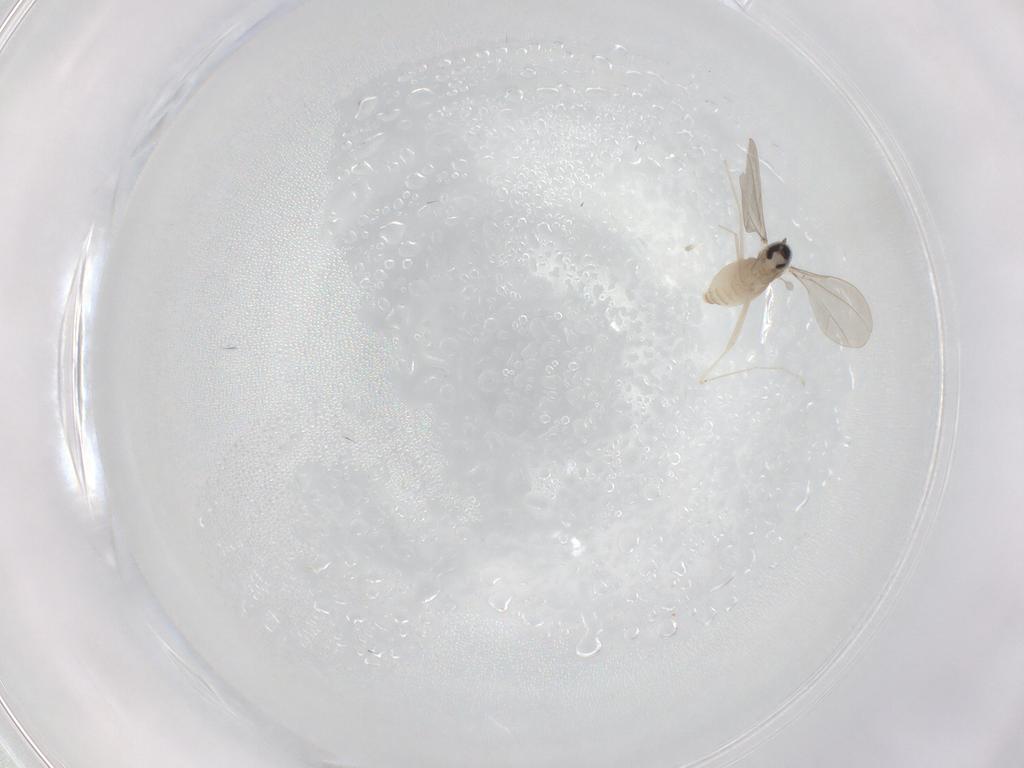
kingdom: Animalia
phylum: Arthropoda
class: Insecta
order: Diptera
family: Cecidomyiidae
